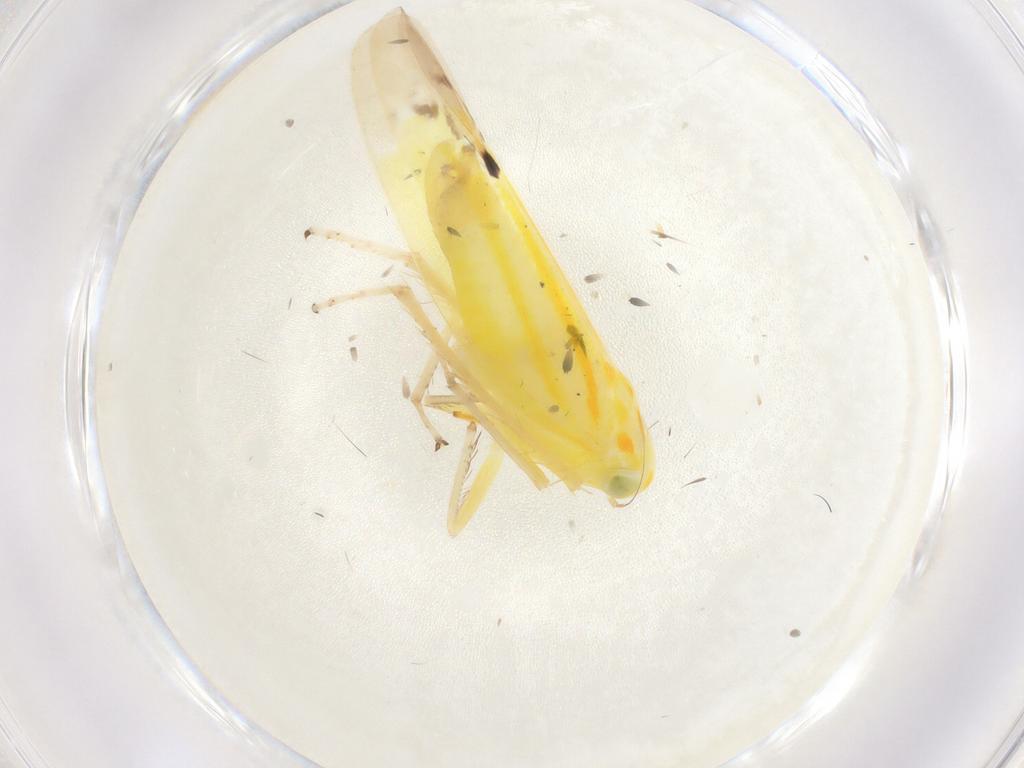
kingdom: Animalia
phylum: Arthropoda
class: Insecta
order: Hemiptera
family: Cicadellidae
